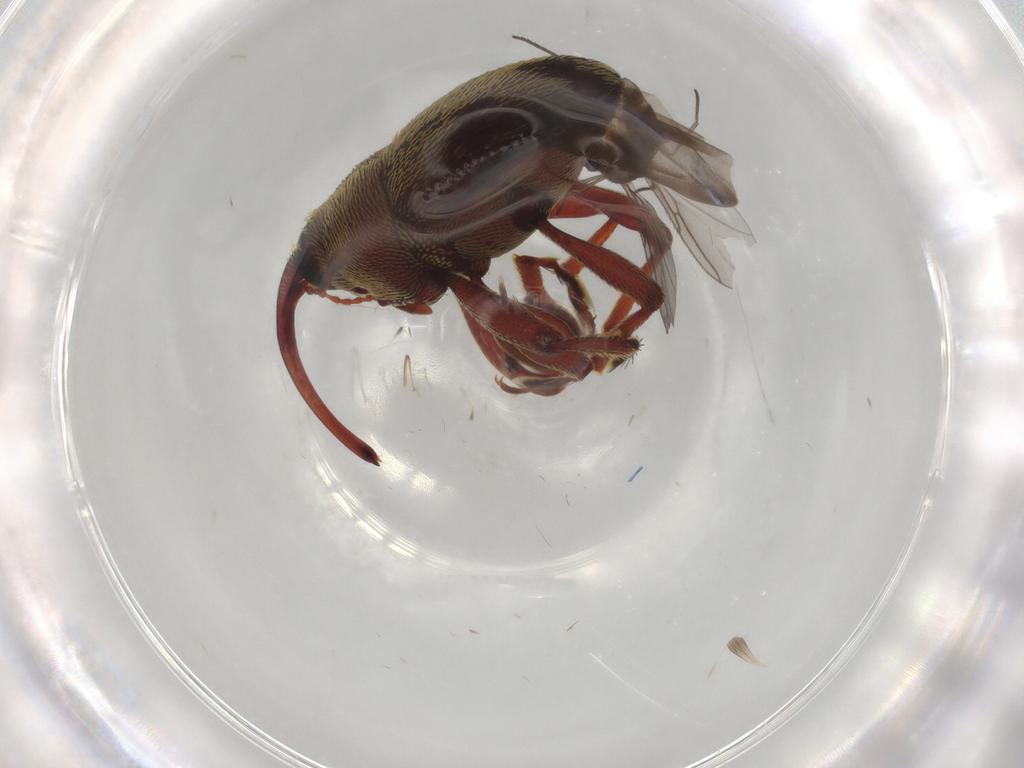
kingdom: Animalia
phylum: Arthropoda
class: Insecta
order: Diptera
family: Sciaridae
